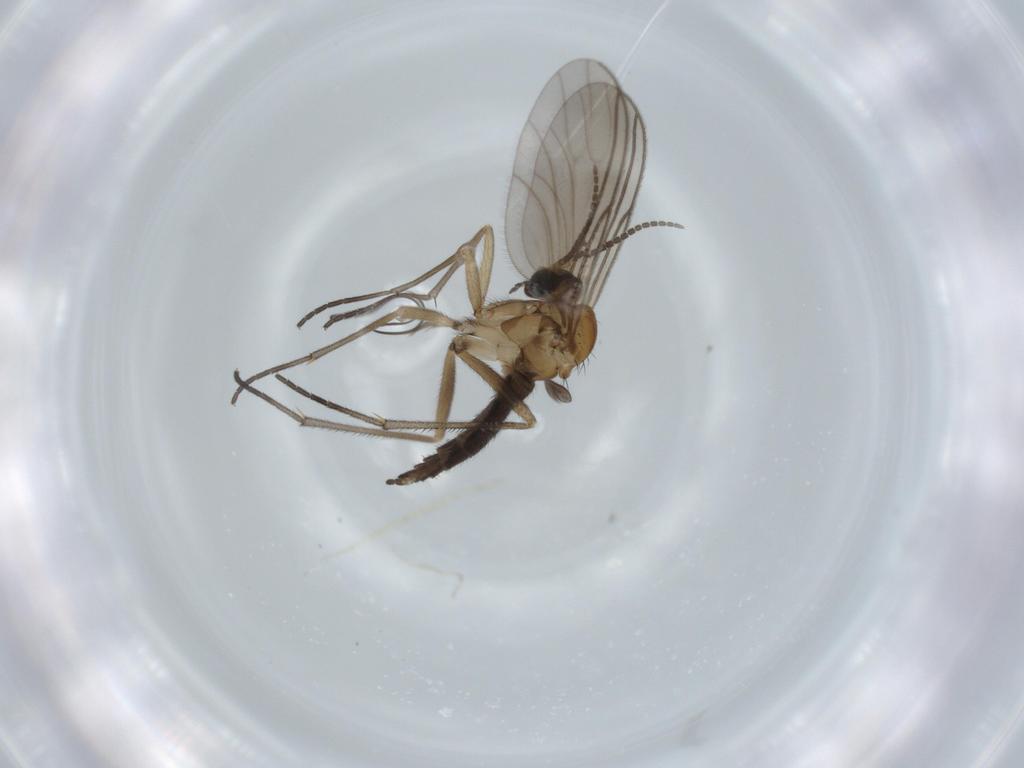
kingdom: Animalia
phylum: Arthropoda
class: Insecta
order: Diptera
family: Sciaridae
